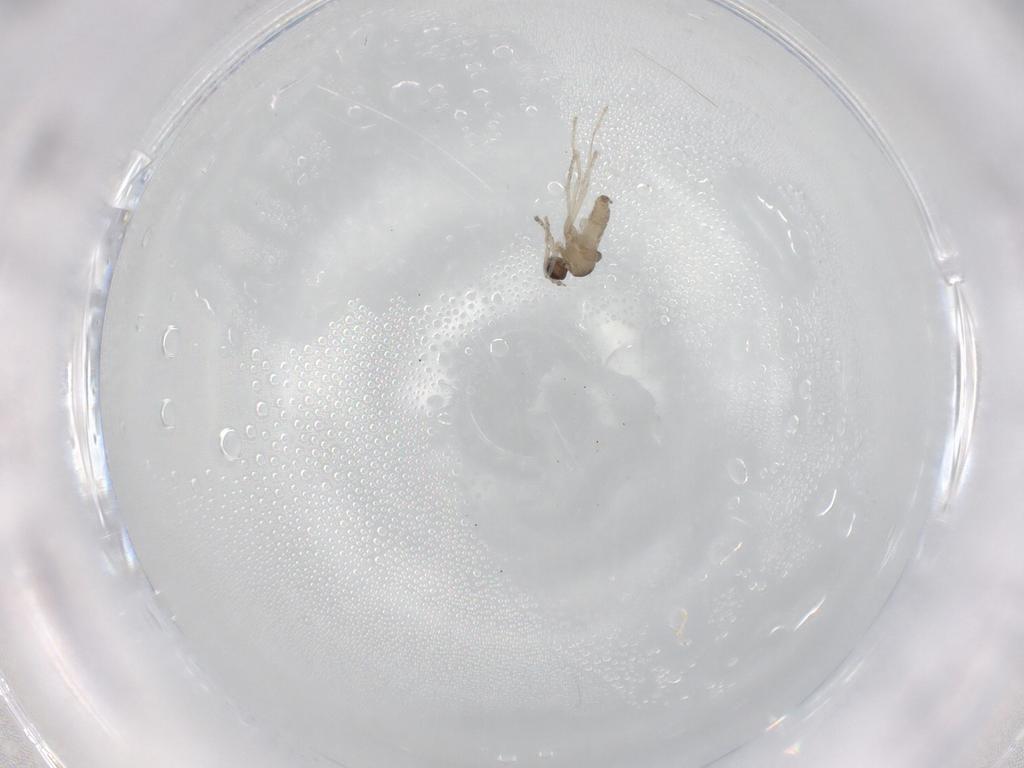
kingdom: Animalia
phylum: Arthropoda
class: Insecta
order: Diptera
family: Cecidomyiidae
